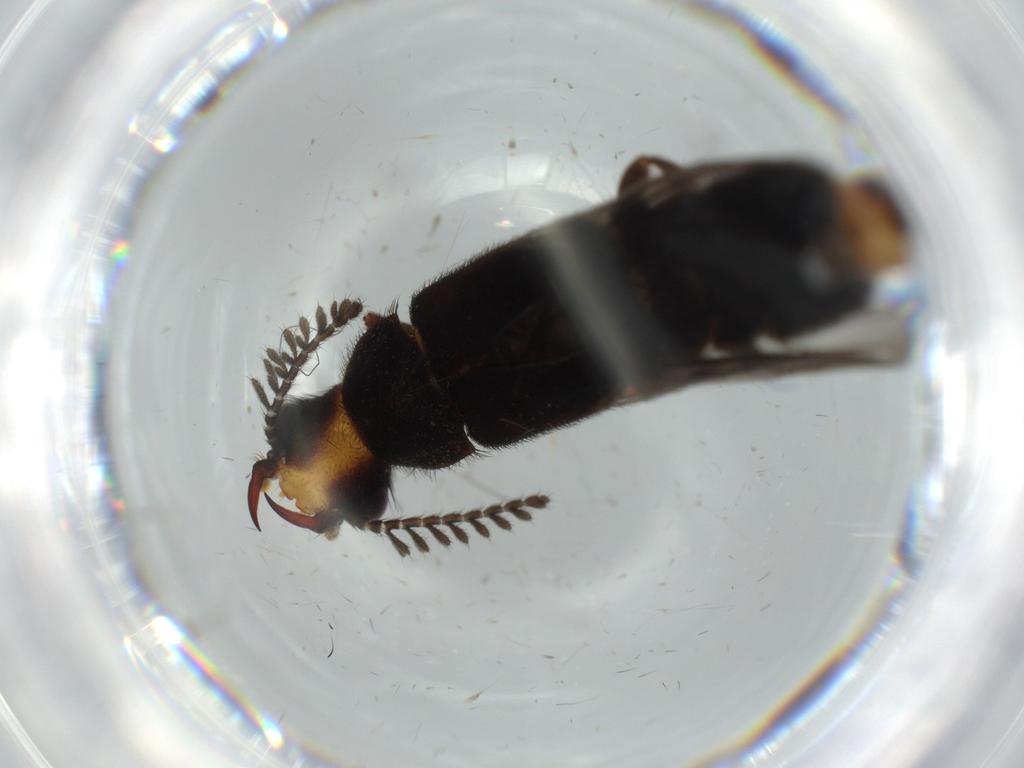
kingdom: Animalia
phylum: Arthropoda
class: Insecta
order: Coleoptera
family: Phengodidae
